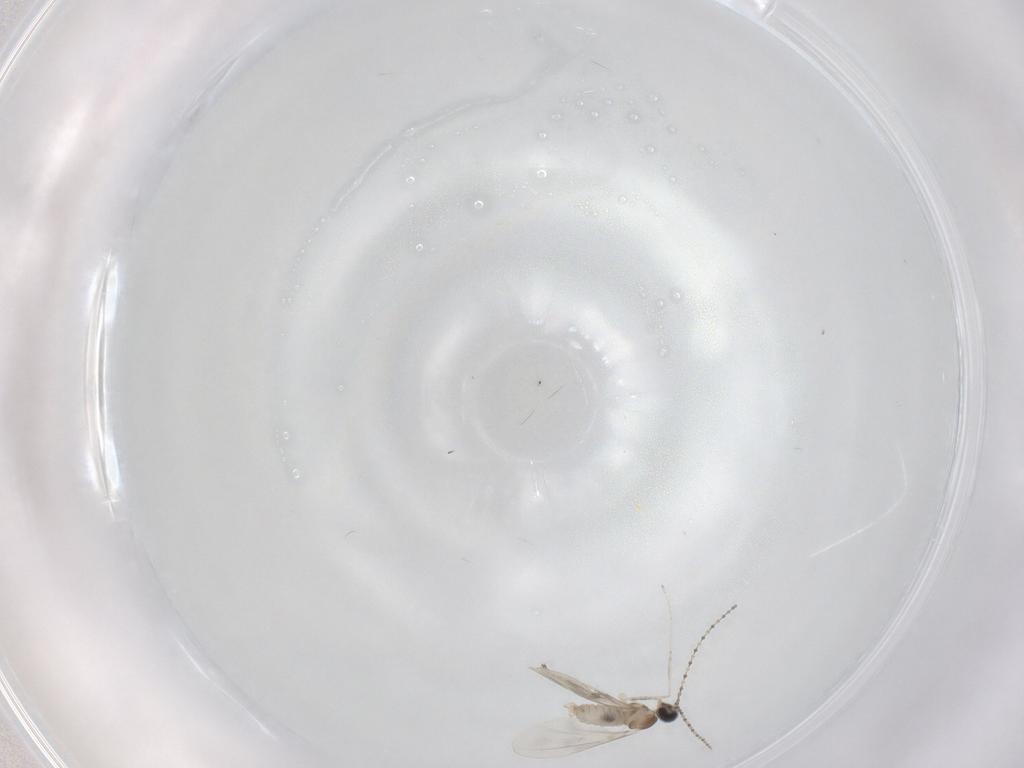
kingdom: Animalia
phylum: Arthropoda
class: Insecta
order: Diptera
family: Cecidomyiidae
